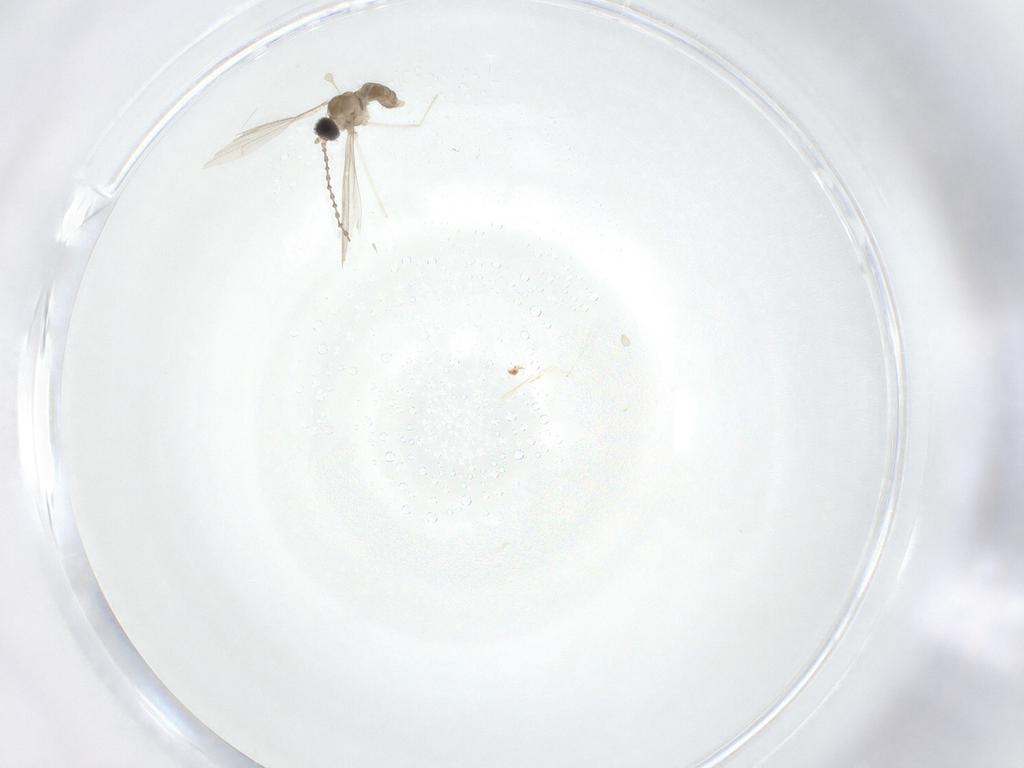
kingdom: Animalia
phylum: Arthropoda
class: Insecta
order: Diptera
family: Cecidomyiidae
